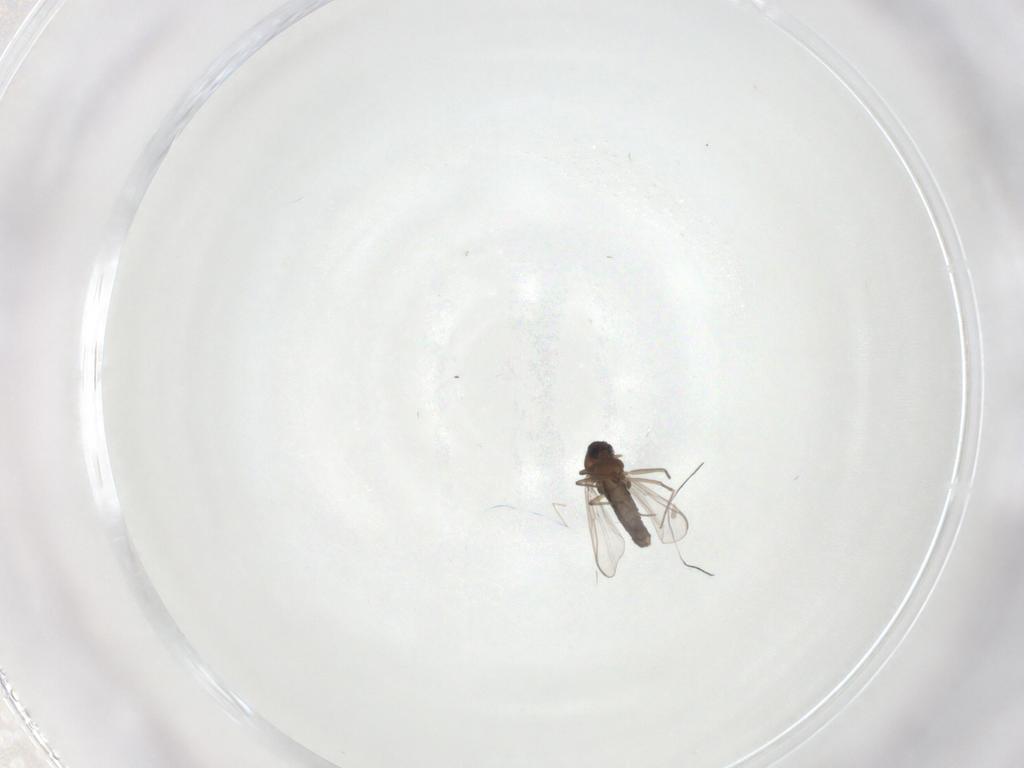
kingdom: Animalia
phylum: Arthropoda
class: Insecta
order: Diptera
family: Chironomidae
